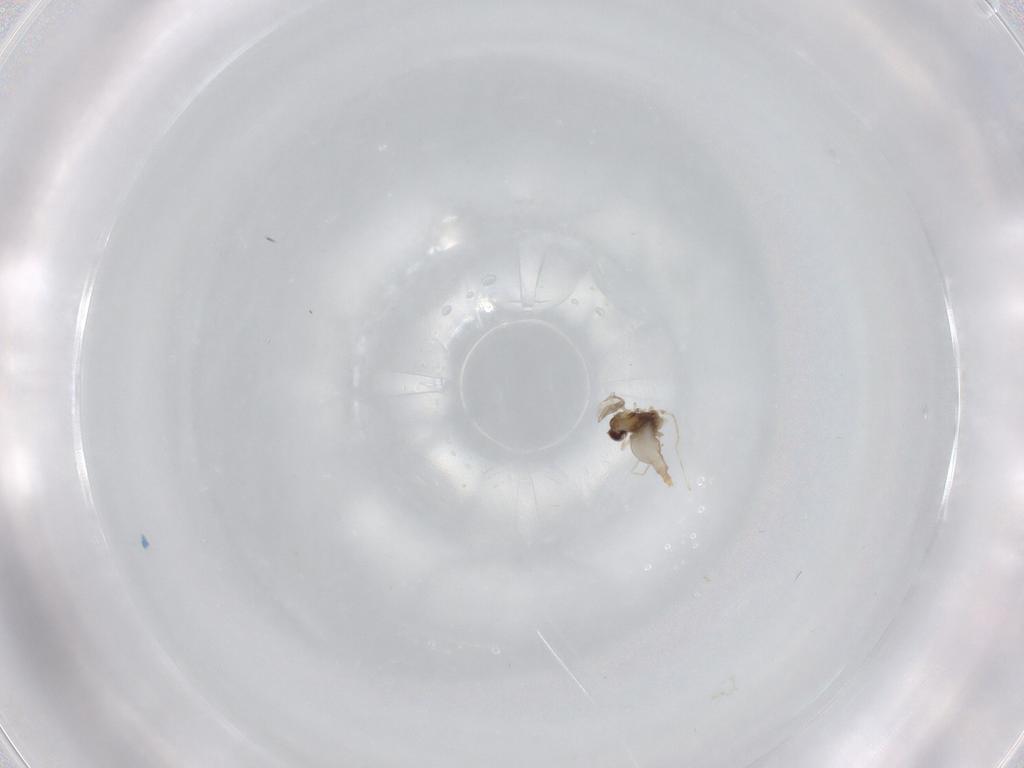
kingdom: Animalia
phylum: Arthropoda
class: Insecta
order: Diptera
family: Cecidomyiidae
